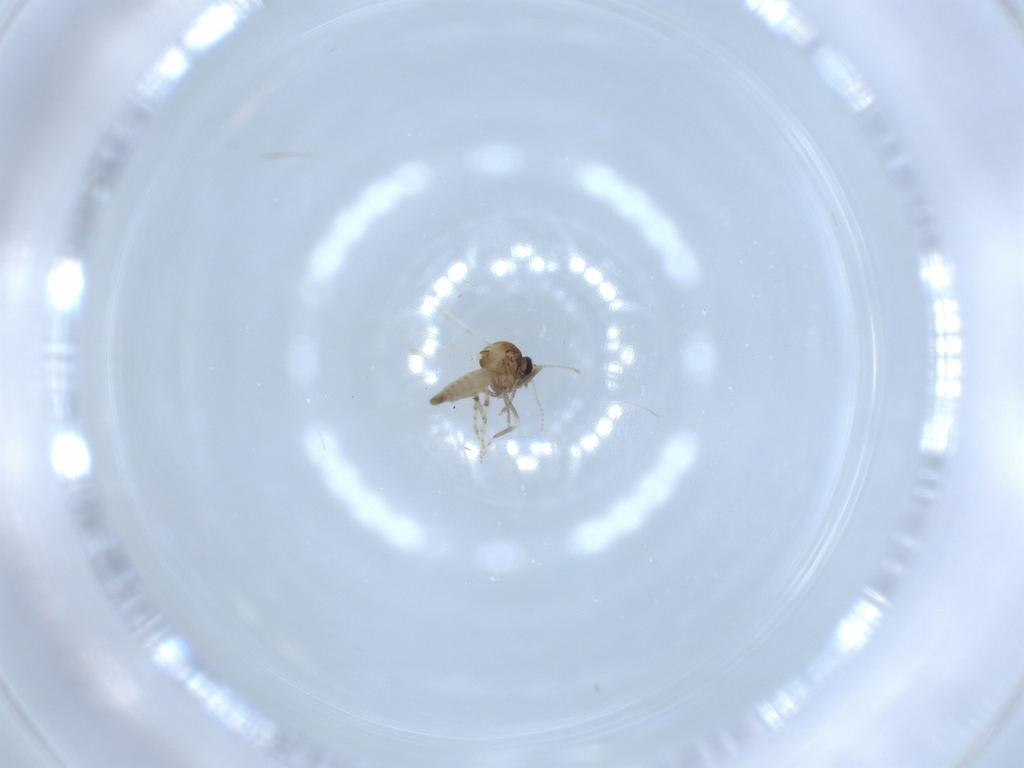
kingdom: Animalia
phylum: Arthropoda
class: Insecta
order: Diptera
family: Ceratopogonidae
